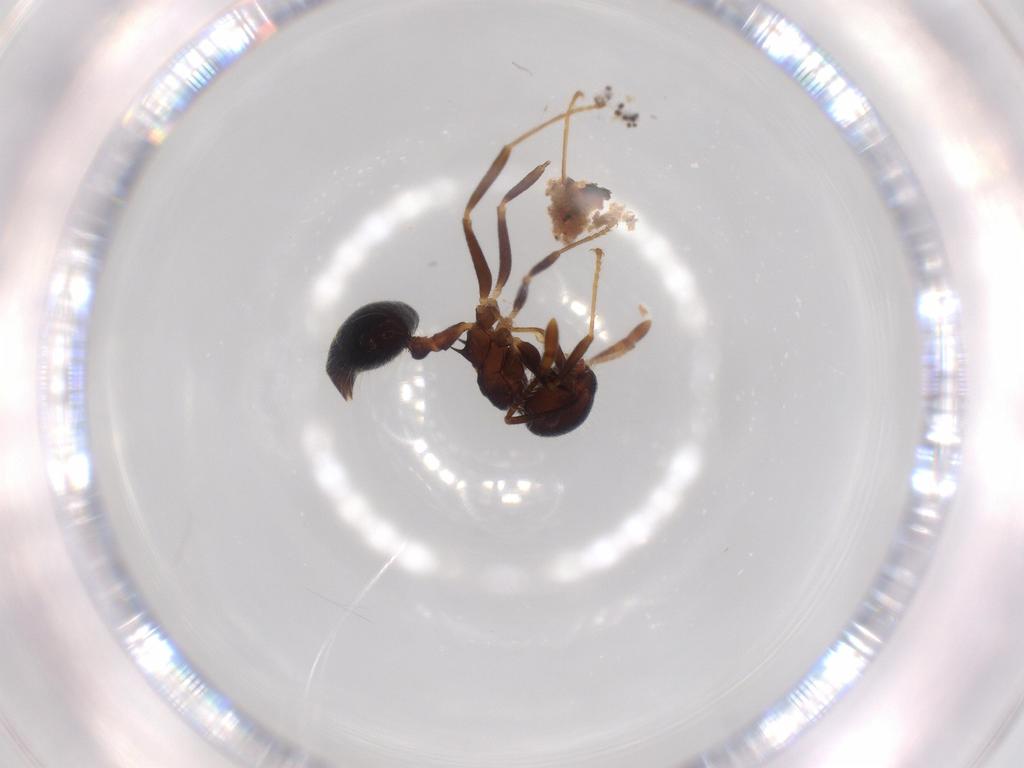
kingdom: Animalia
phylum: Arthropoda
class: Insecta
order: Hymenoptera
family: Formicidae
